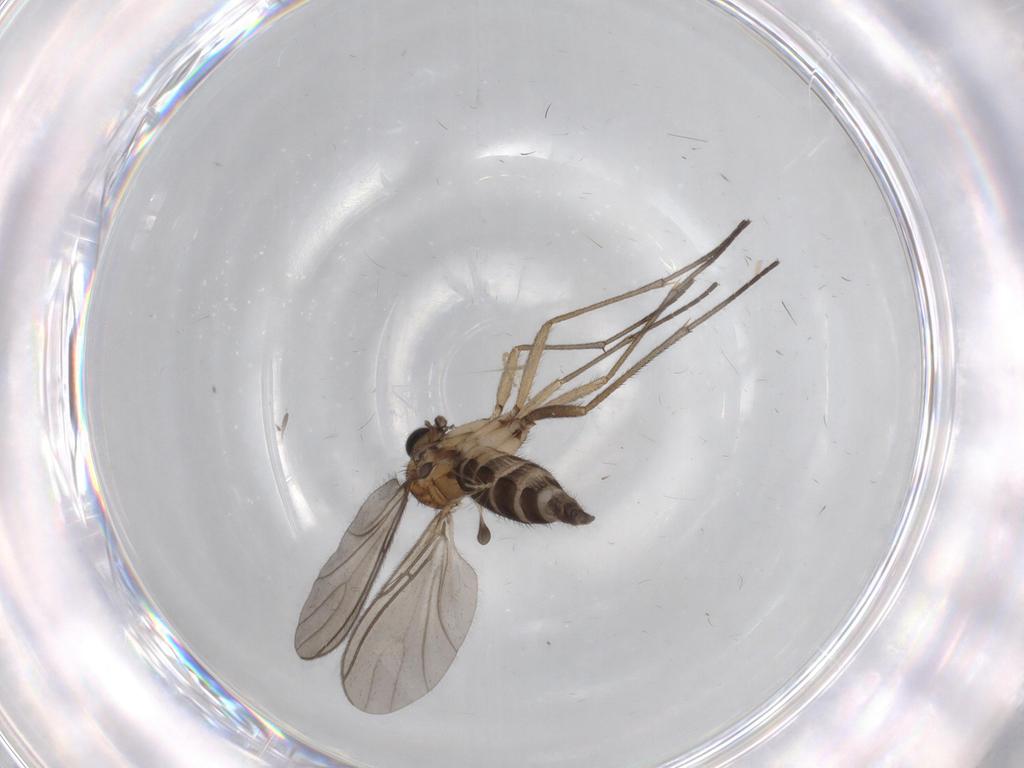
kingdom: Animalia
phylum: Arthropoda
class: Insecta
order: Diptera
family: Sciaridae
